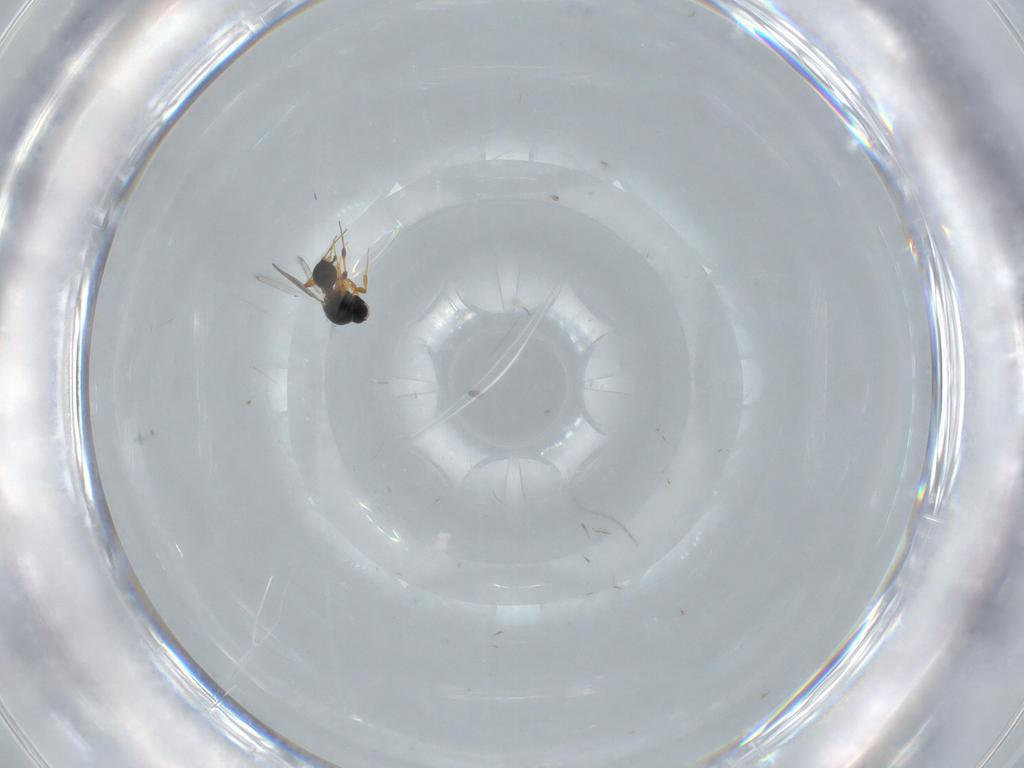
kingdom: Animalia
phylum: Arthropoda
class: Insecta
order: Hymenoptera
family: Platygastridae
